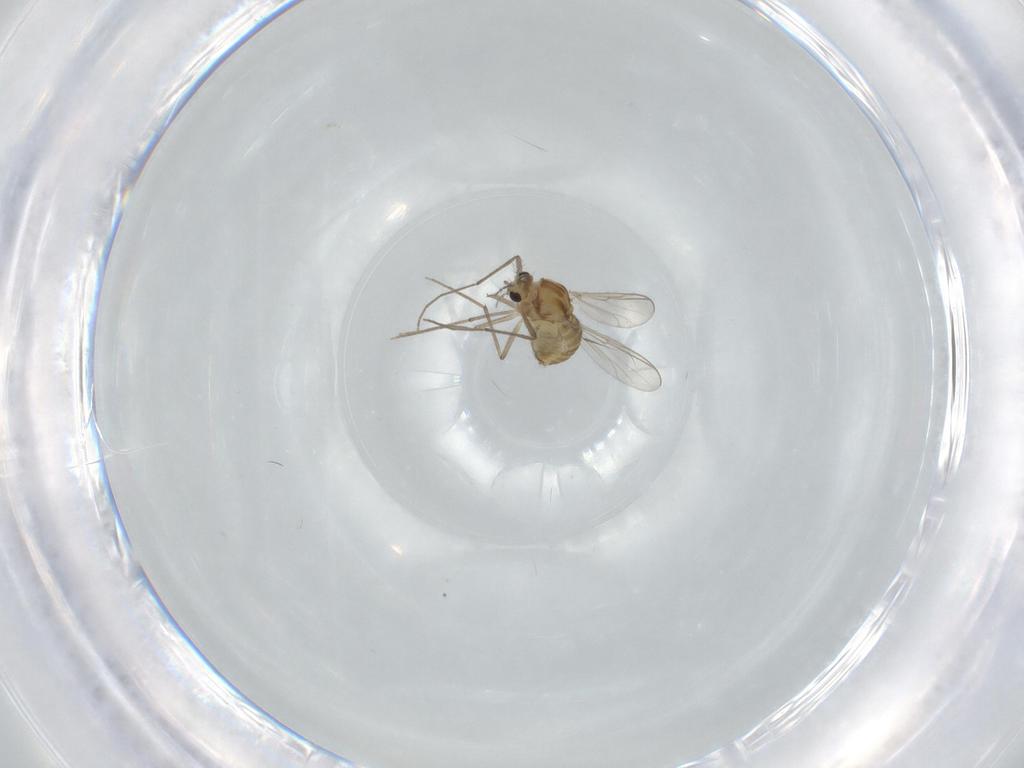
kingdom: Animalia
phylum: Arthropoda
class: Insecta
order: Diptera
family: Chironomidae
